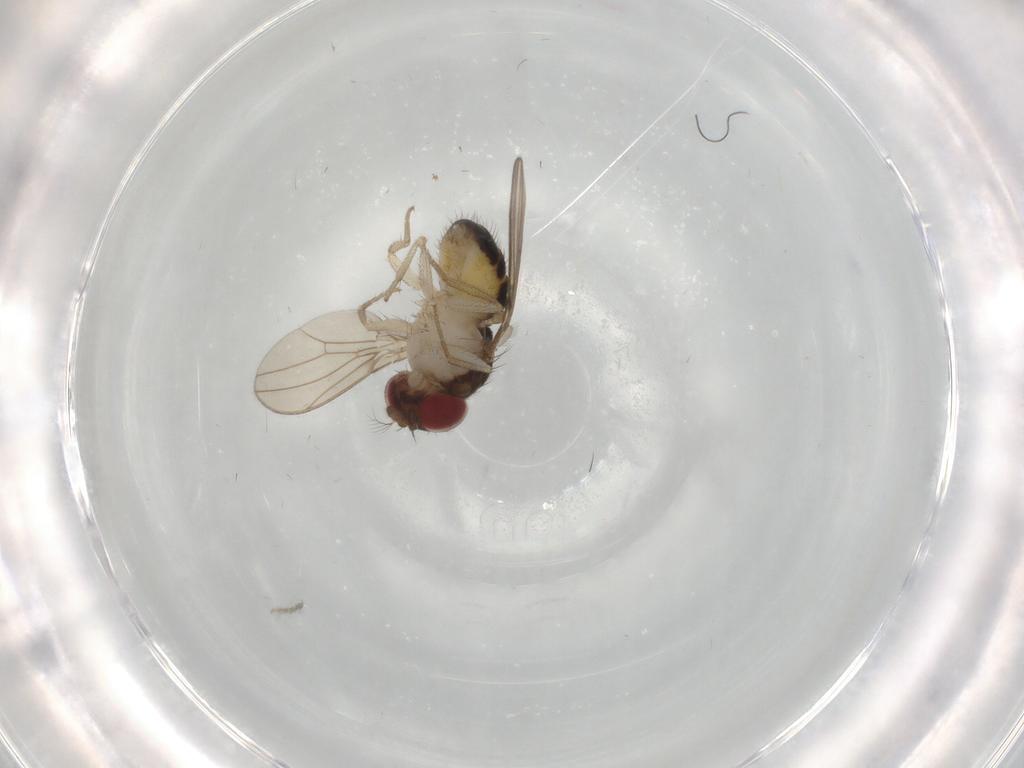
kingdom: Animalia
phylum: Arthropoda
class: Insecta
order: Diptera
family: Drosophilidae
